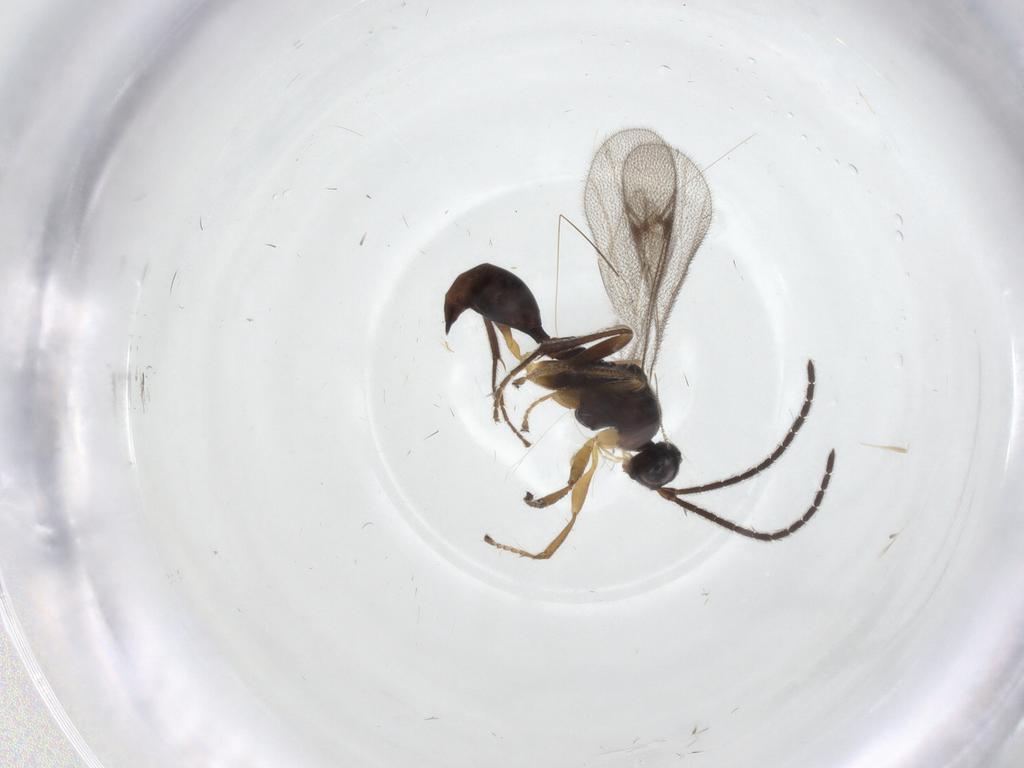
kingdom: Animalia
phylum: Arthropoda
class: Insecta
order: Hymenoptera
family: Proctotrupidae
